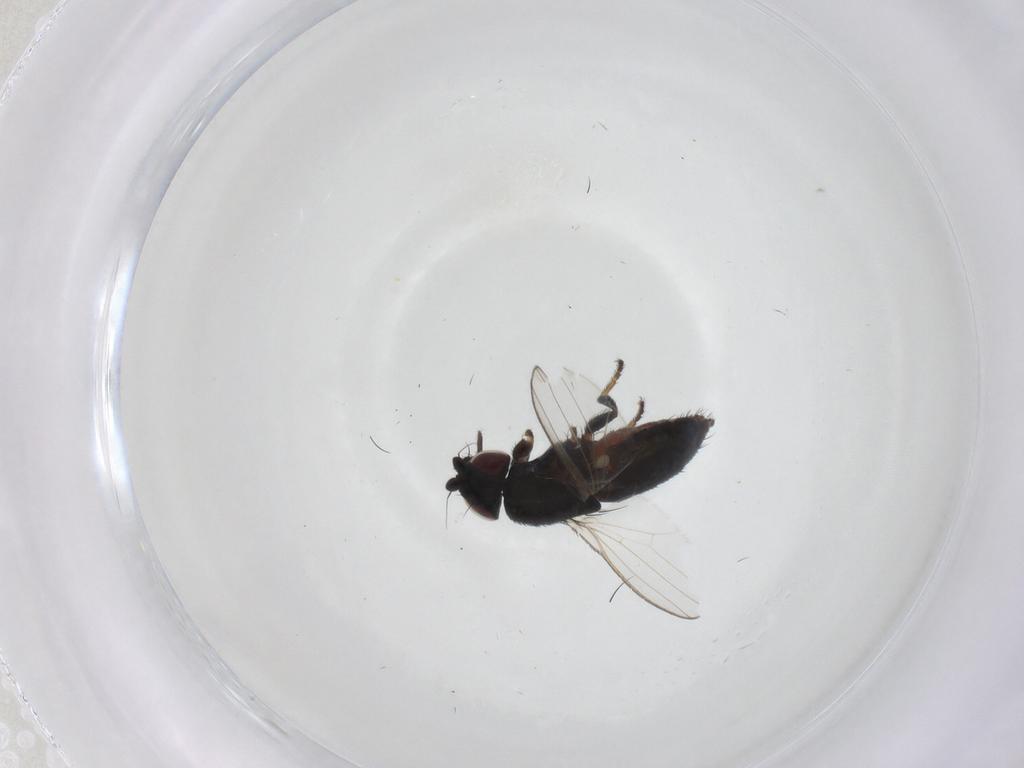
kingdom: Animalia
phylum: Arthropoda
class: Insecta
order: Diptera
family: Milichiidae
